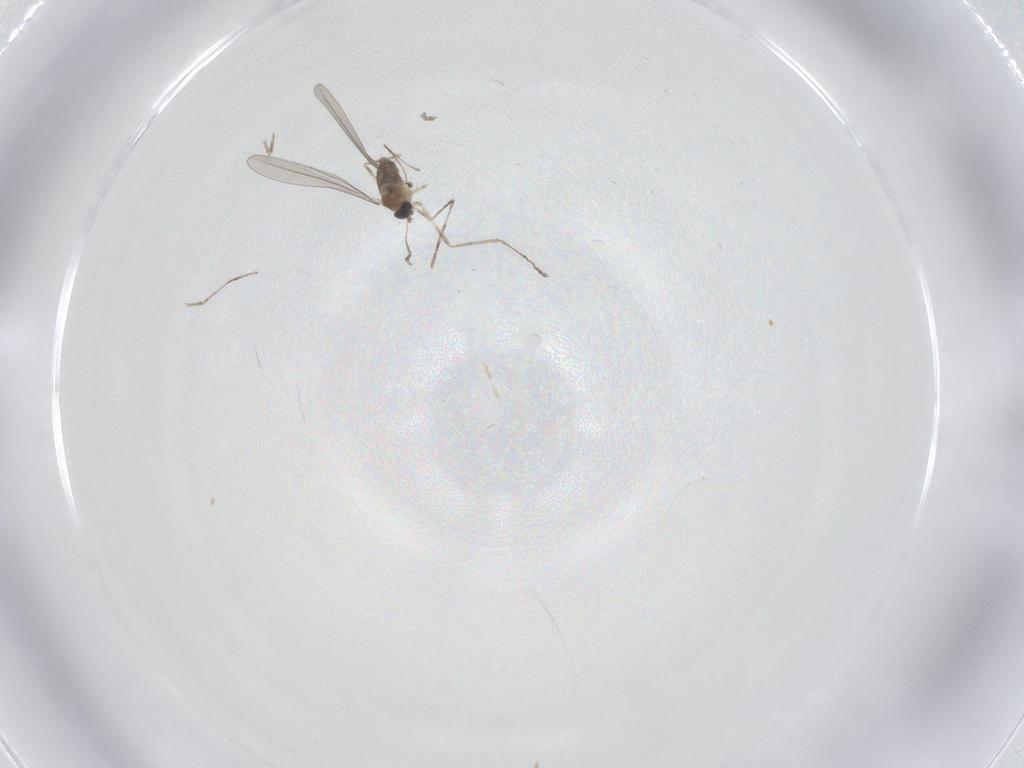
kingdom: Animalia
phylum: Arthropoda
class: Insecta
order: Diptera
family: Cecidomyiidae
